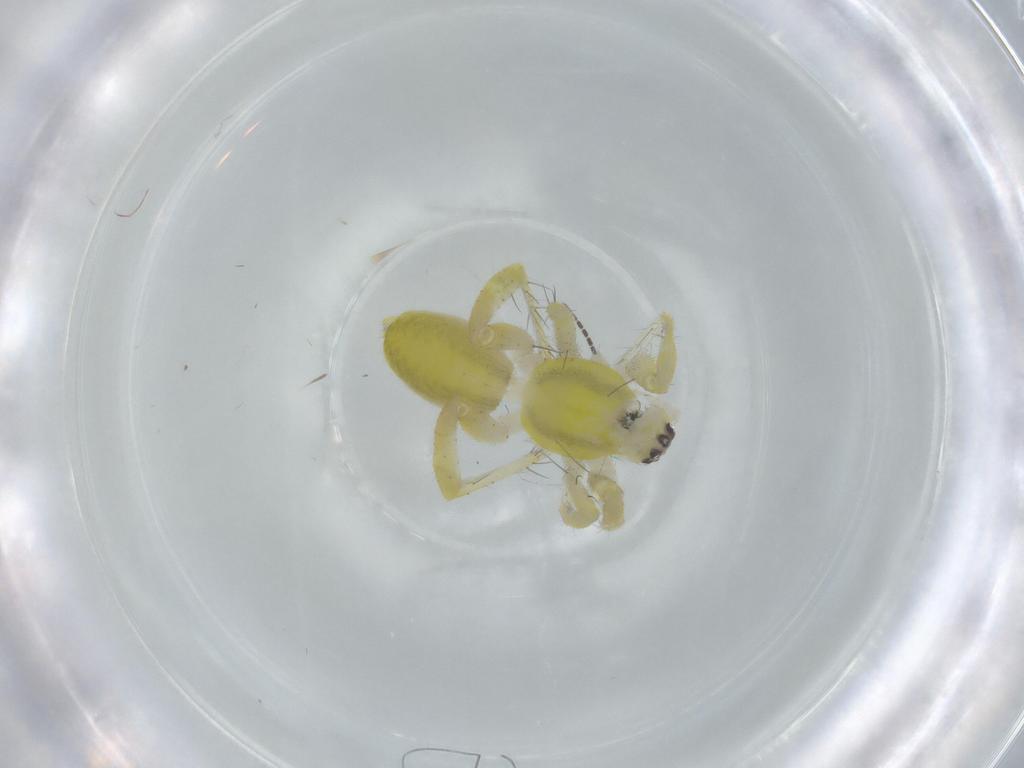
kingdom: Animalia
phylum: Arthropoda
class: Arachnida
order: Araneae
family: Anyphaenidae
